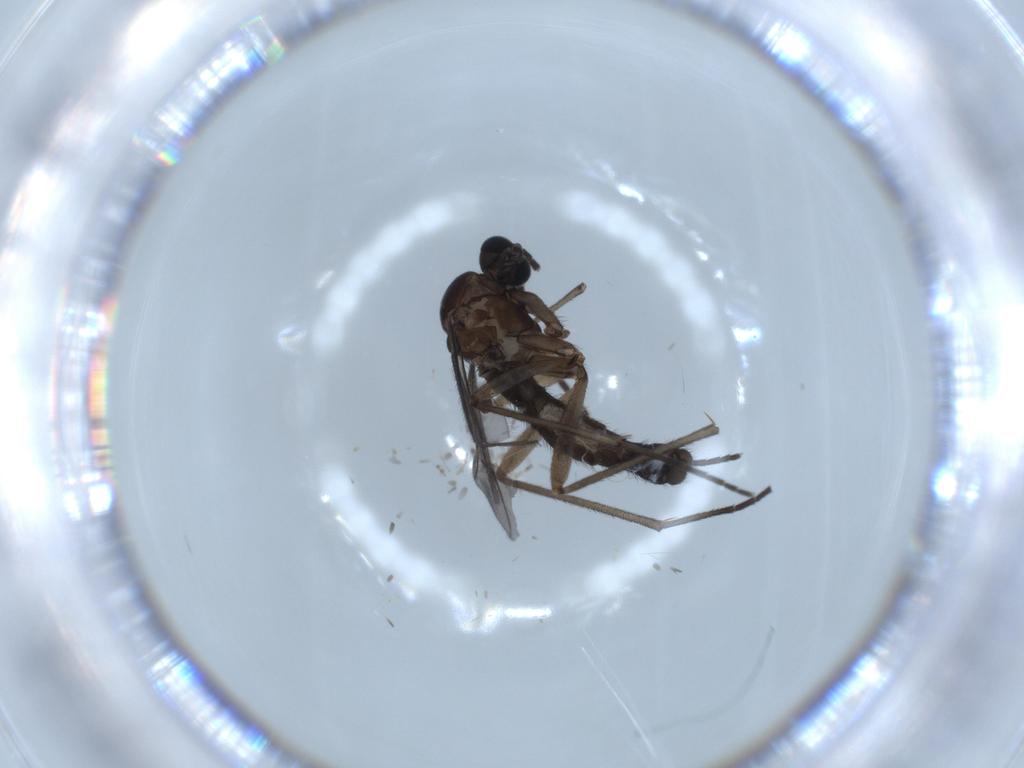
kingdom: Animalia
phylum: Arthropoda
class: Insecta
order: Diptera
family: Sciaridae
